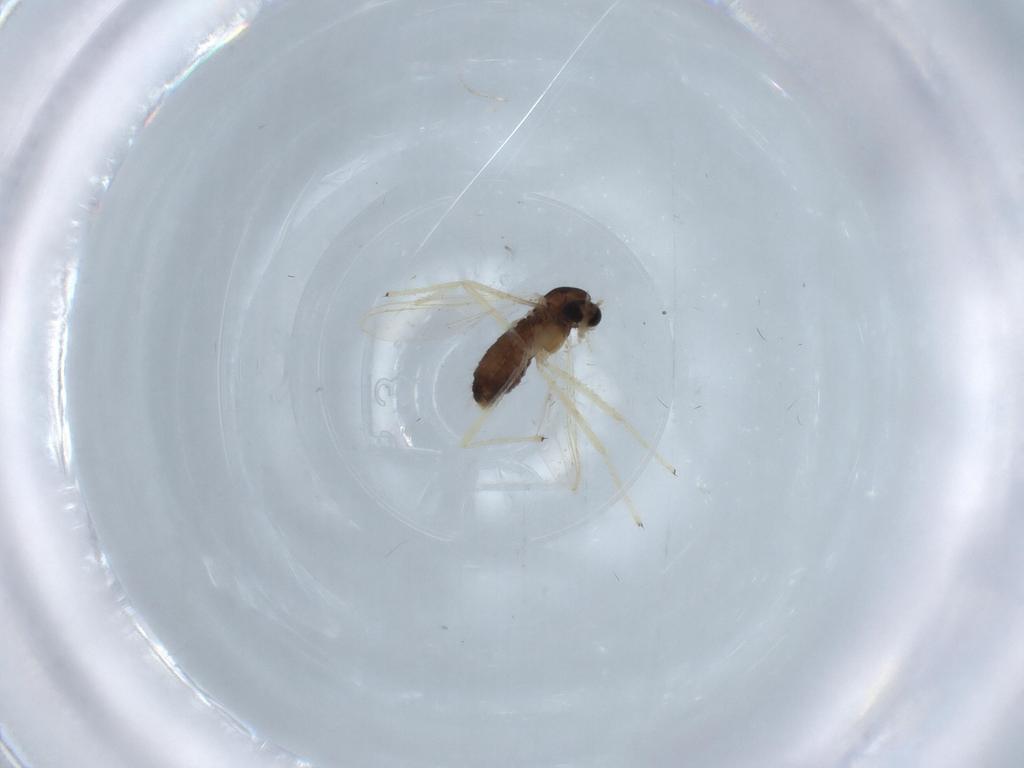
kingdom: Animalia
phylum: Arthropoda
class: Insecta
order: Diptera
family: Chironomidae
